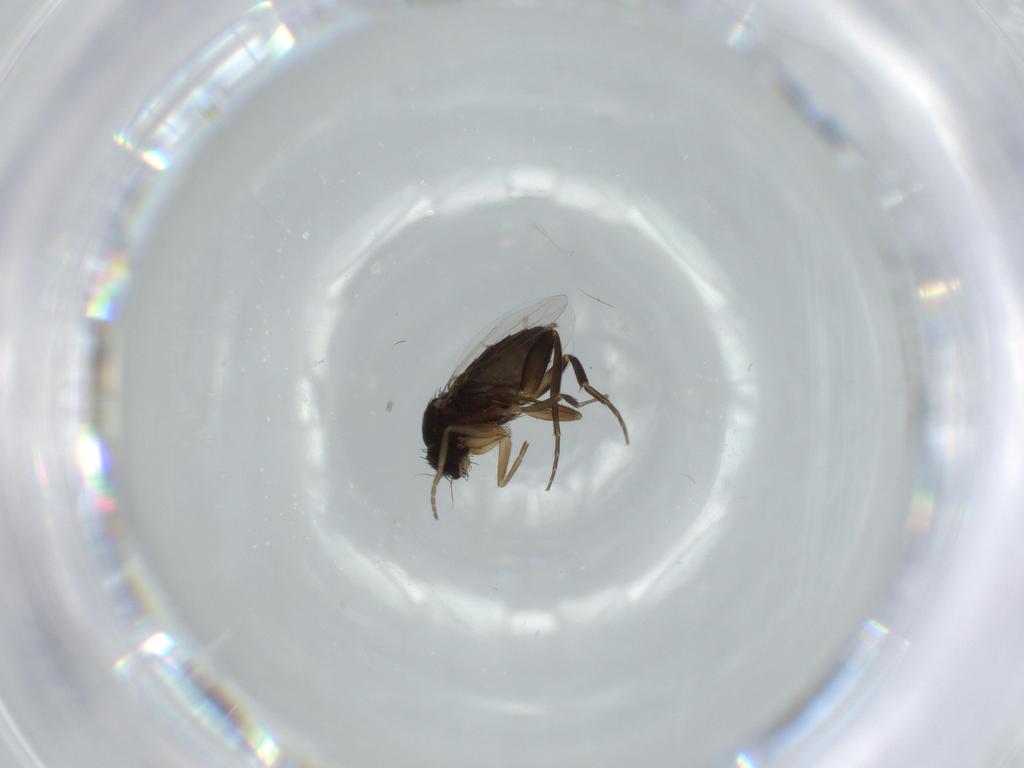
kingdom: Animalia
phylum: Arthropoda
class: Insecta
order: Diptera
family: Phoridae
